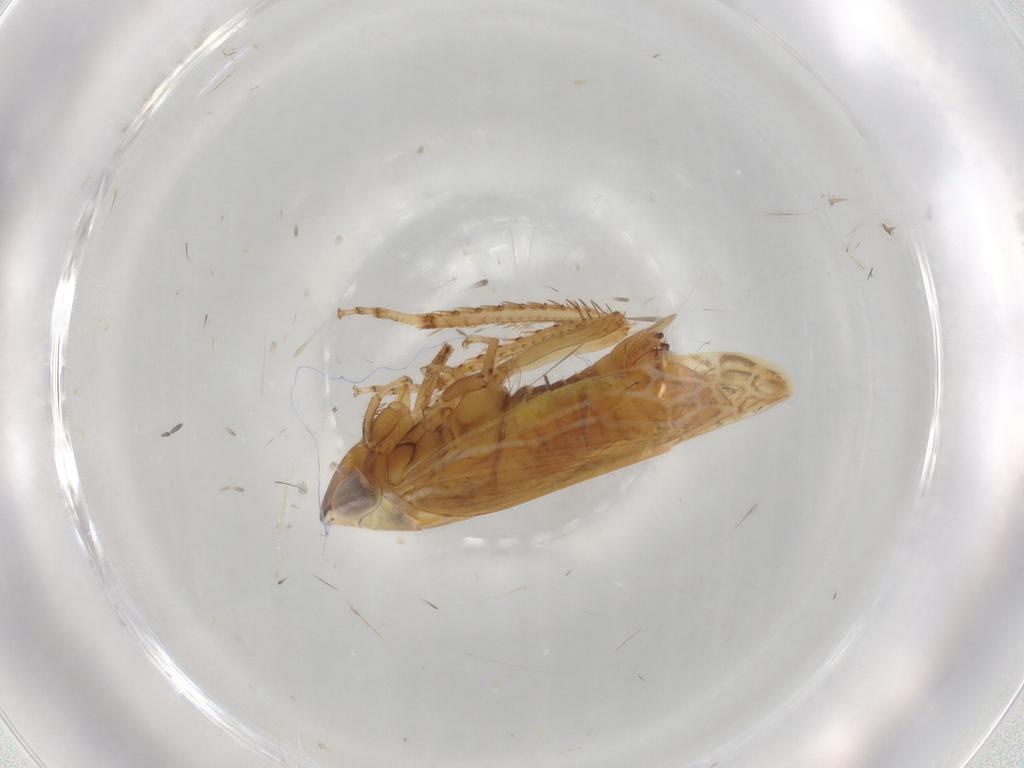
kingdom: Animalia
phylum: Arthropoda
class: Insecta
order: Hemiptera
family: Cicadellidae
